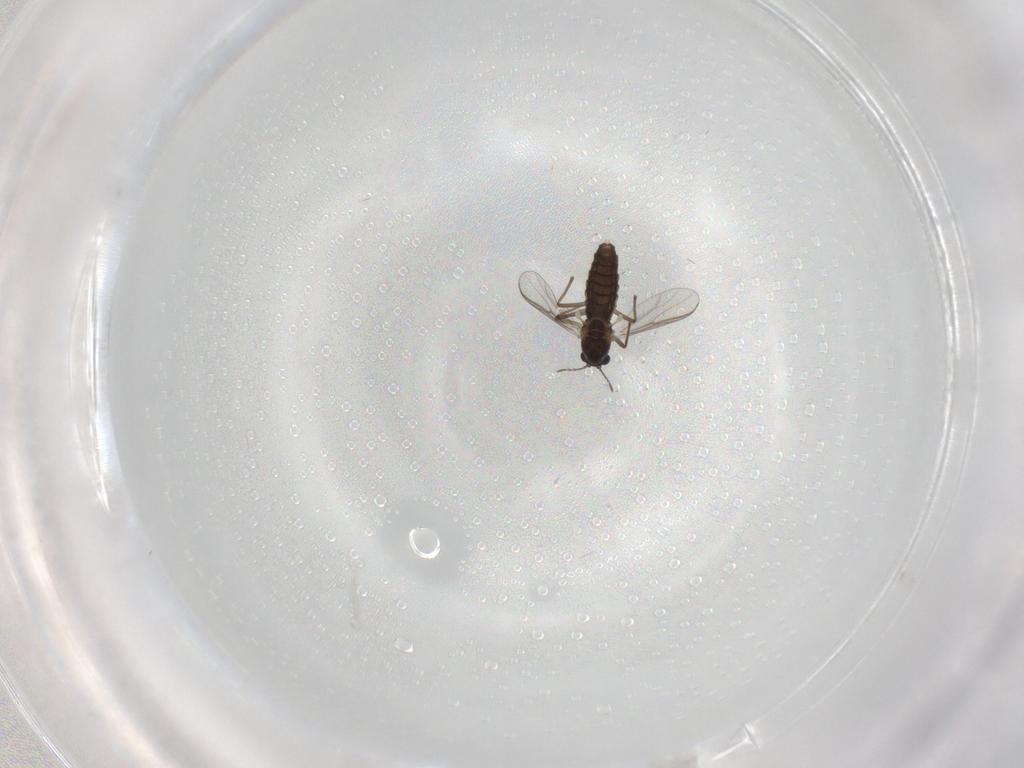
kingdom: Animalia
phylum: Arthropoda
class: Insecta
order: Diptera
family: Chironomidae
